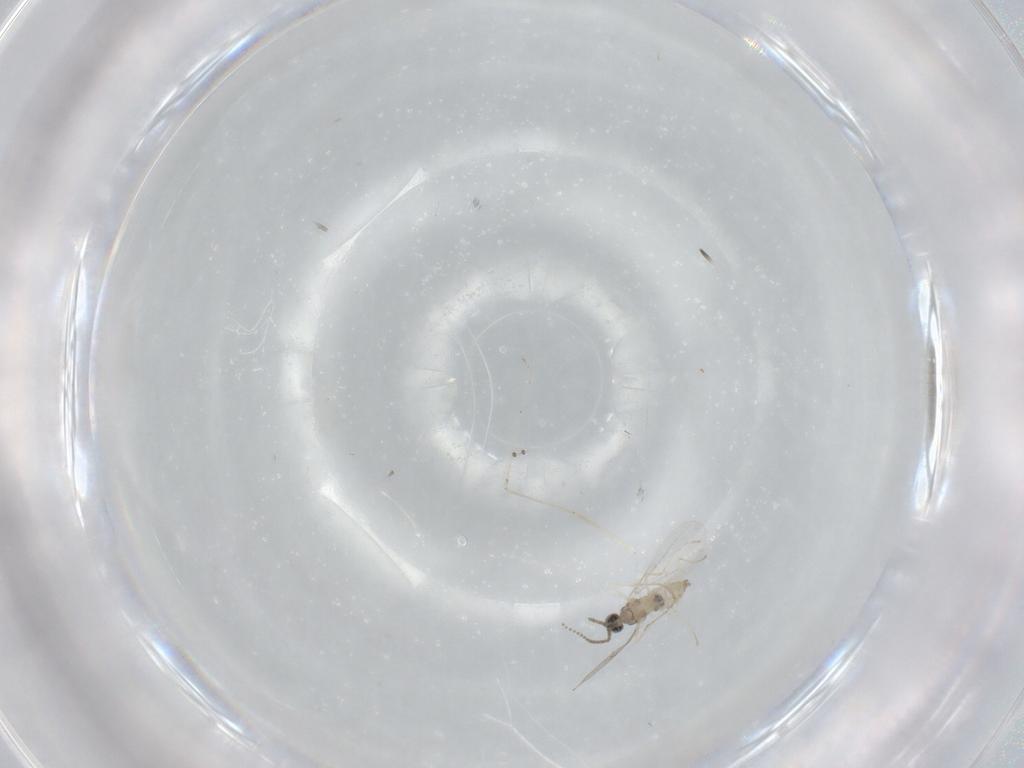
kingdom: Animalia
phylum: Arthropoda
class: Insecta
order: Diptera
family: Cecidomyiidae
